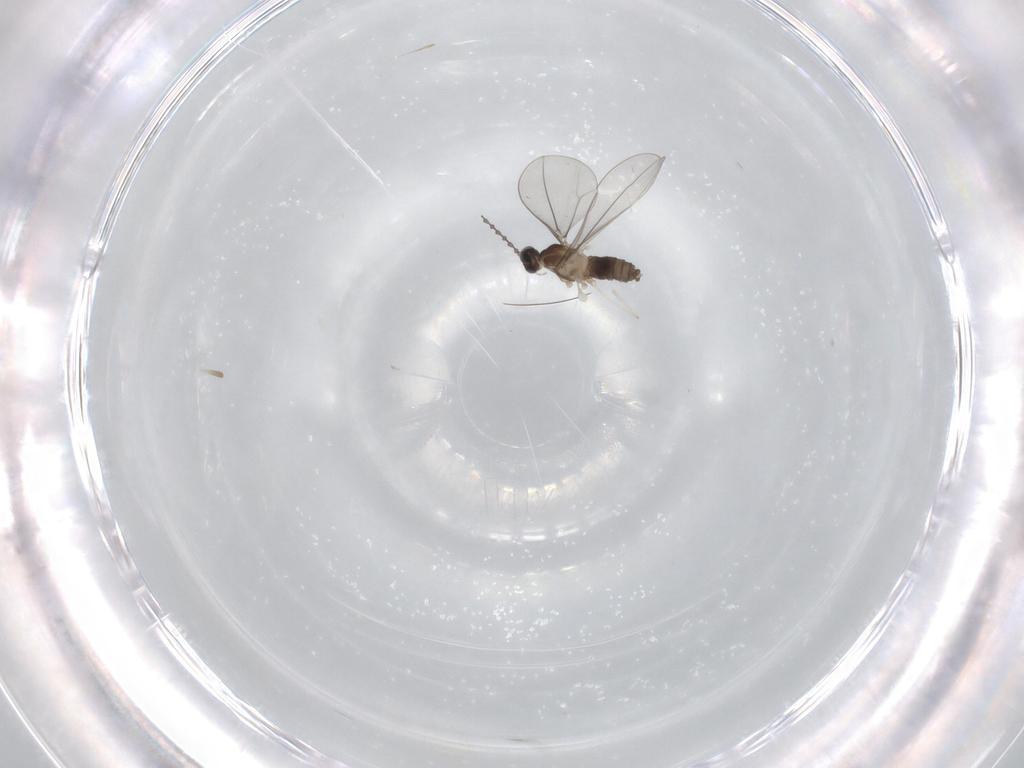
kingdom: Animalia
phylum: Arthropoda
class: Insecta
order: Diptera
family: Cecidomyiidae
